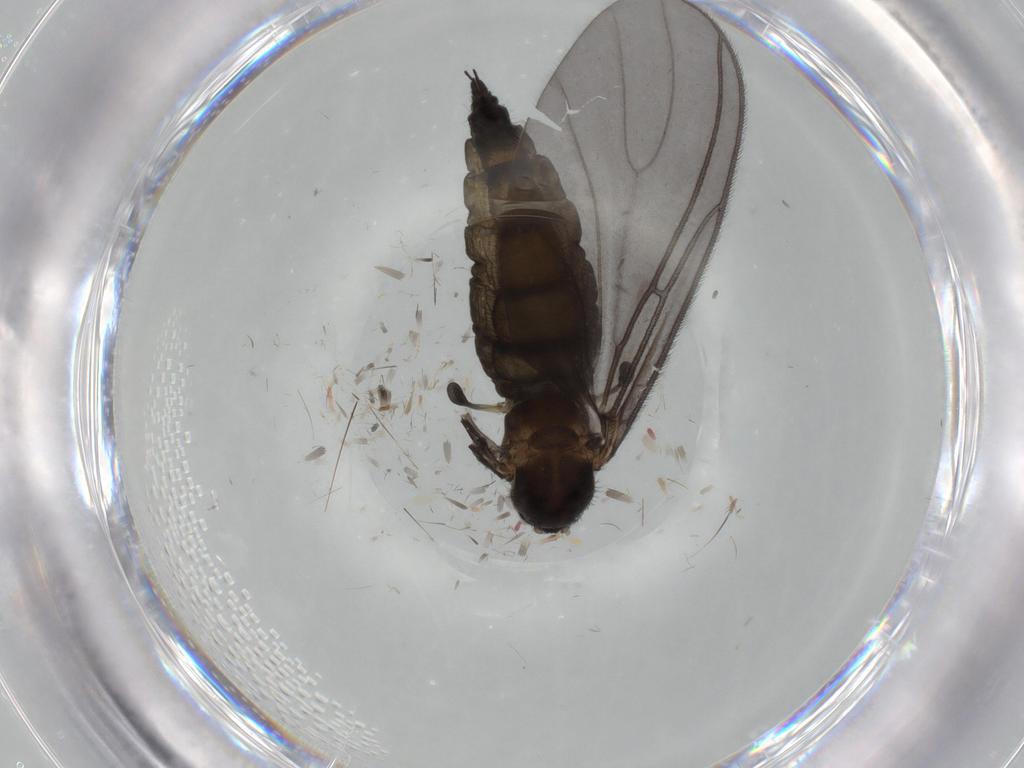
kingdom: Animalia
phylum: Arthropoda
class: Insecta
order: Diptera
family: Sciaridae
